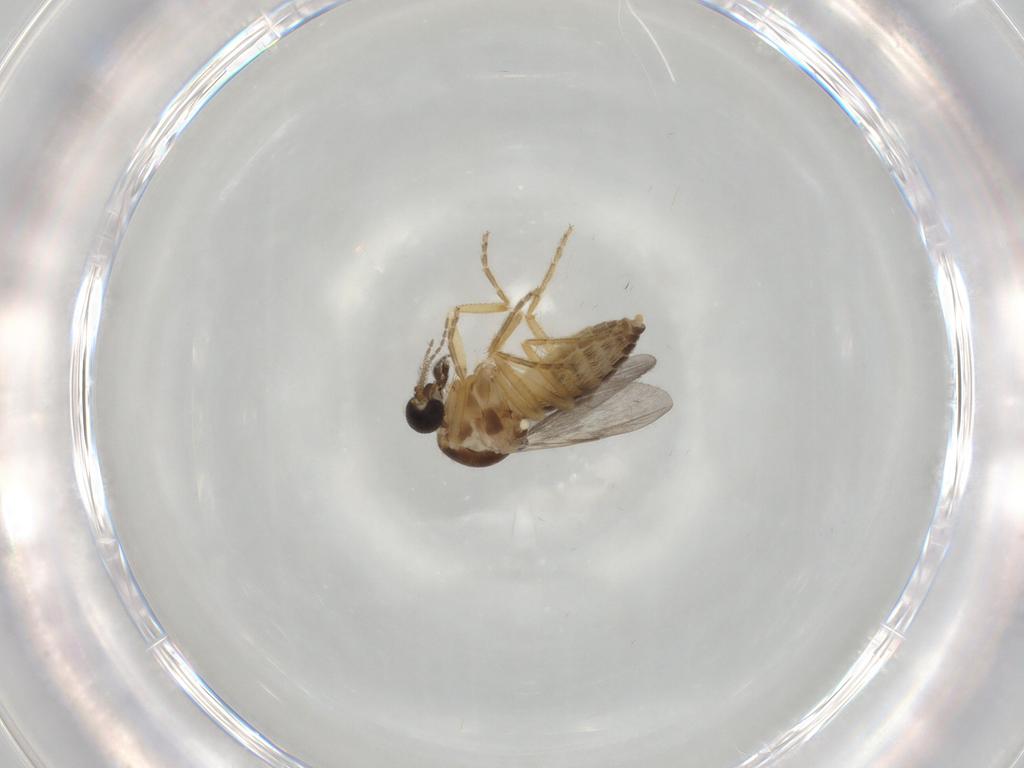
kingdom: Animalia
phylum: Arthropoda
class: Insecta
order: Diptera
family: Ceratopogonidae
